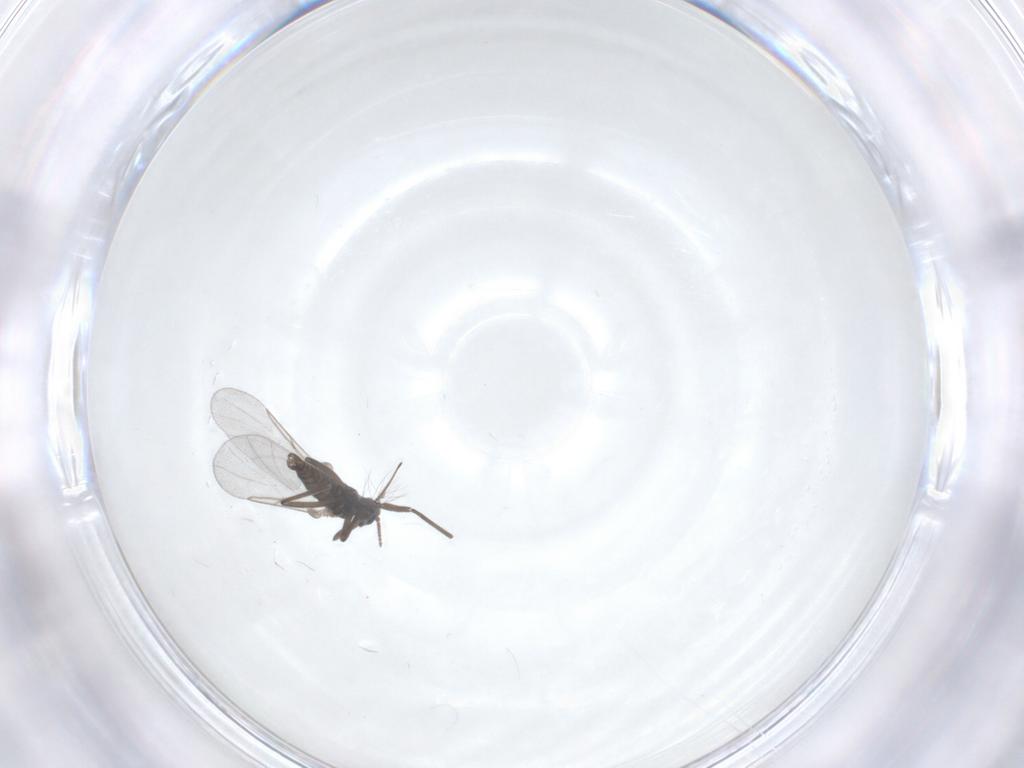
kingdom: Animalia
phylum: Arthropoda
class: Insecta
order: Diptera
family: Cecidomyiidae
